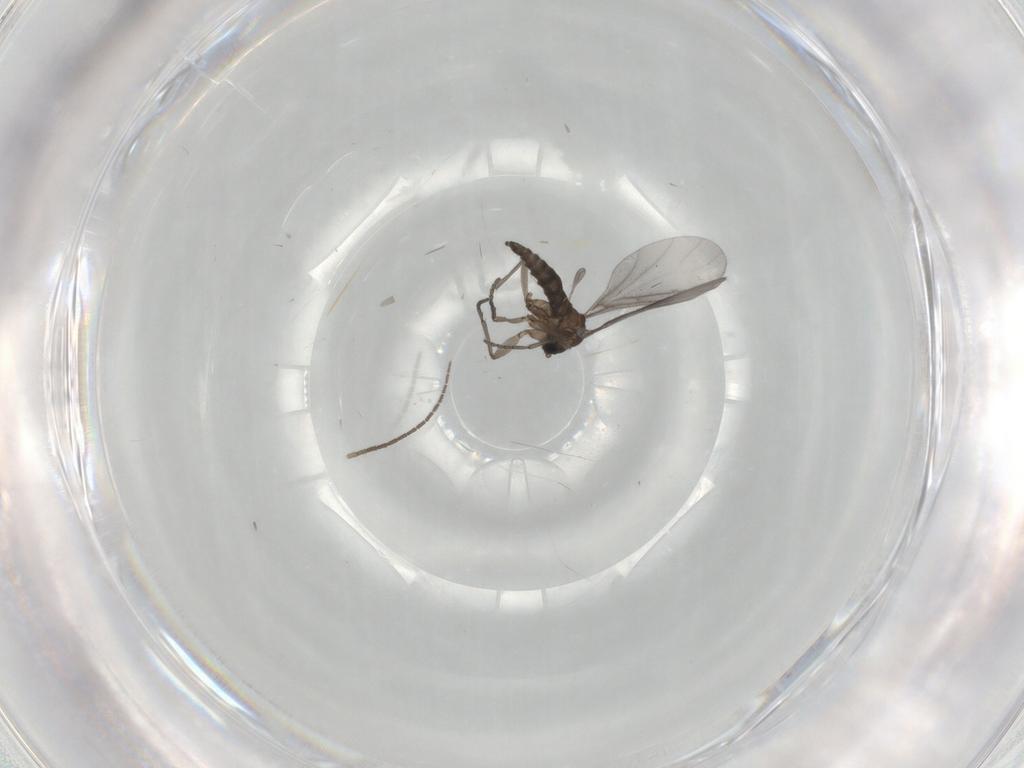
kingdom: Animalia
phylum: Arthropoda
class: Insecta
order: Diptera
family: Sciaridae
